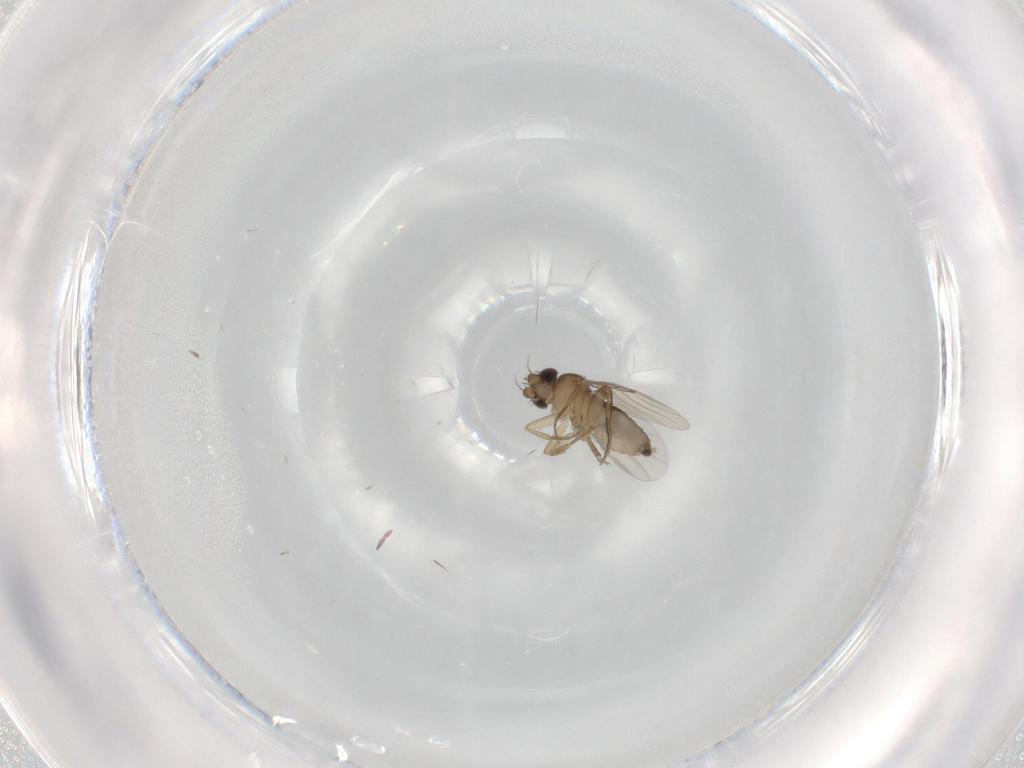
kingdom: Animalia
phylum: Arthropoda
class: Insecta
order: Diptera
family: Phoridae
